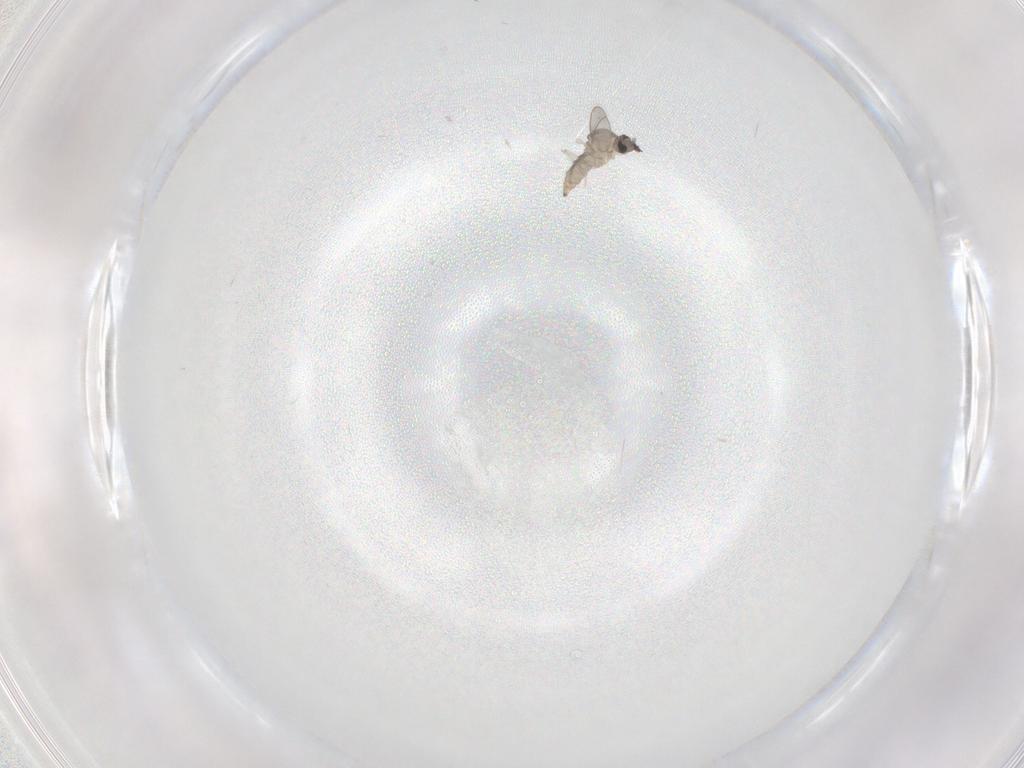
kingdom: Animalia
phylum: Arthropoda
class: Insecta
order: Diptera
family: Cecidomyiidae
